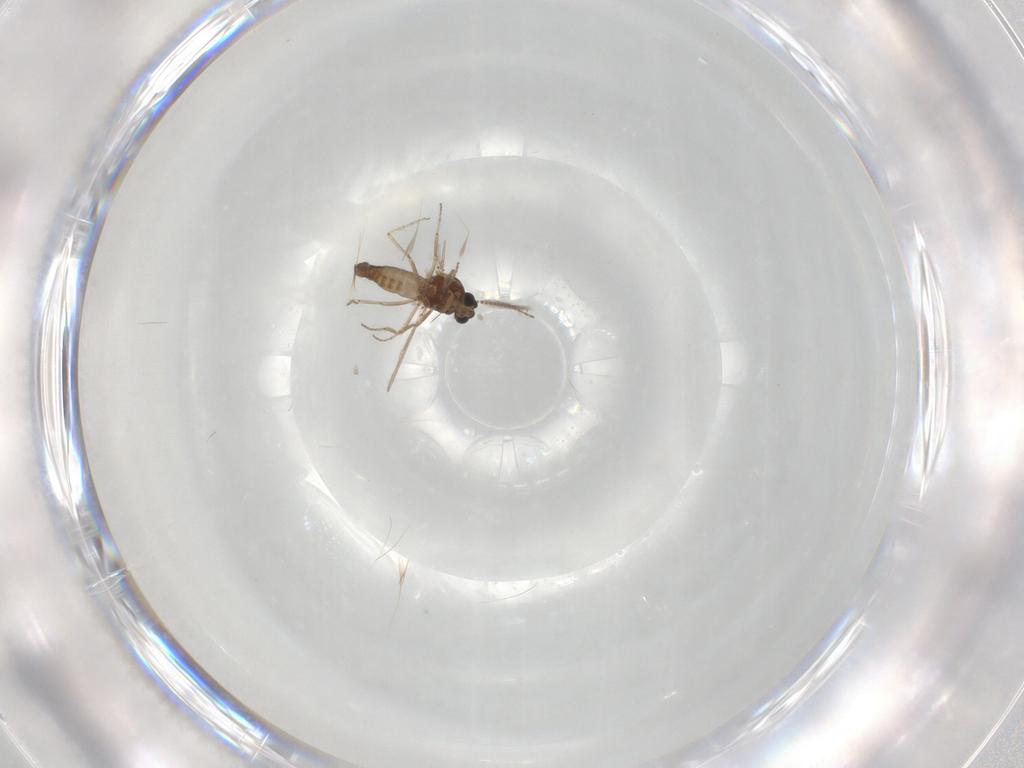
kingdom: Animalia
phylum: Arthropoda
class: Insecta
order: Diptera
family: Ceratopogonidae
